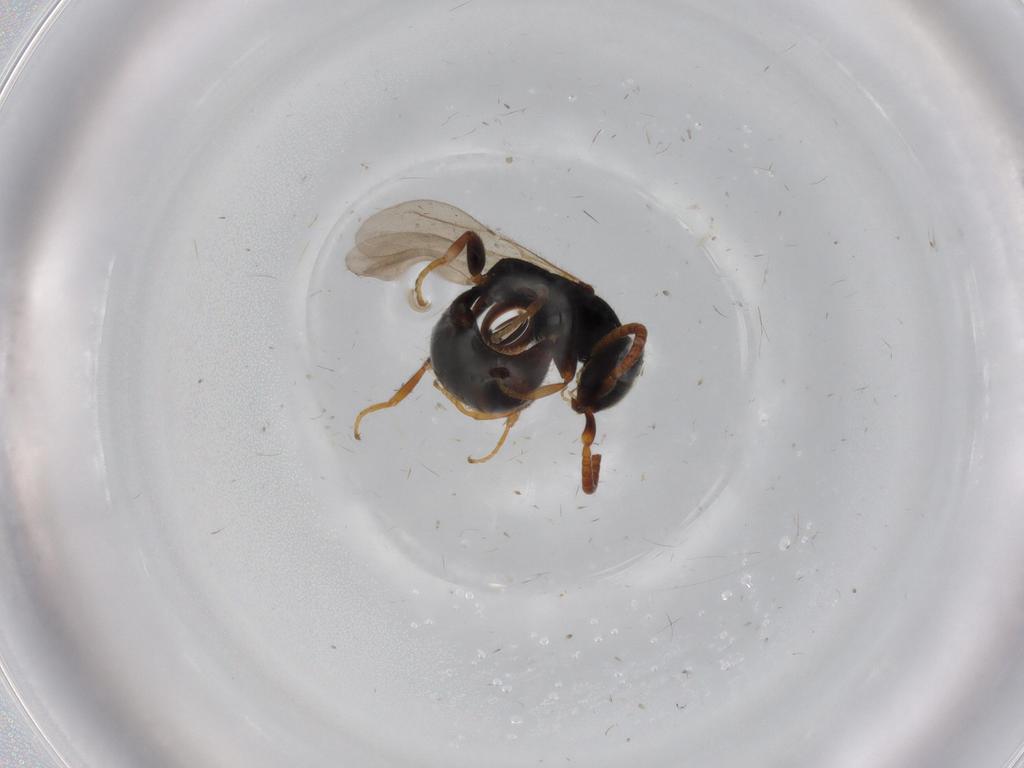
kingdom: Animalia
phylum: Arthropoda
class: Insecta
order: Hymenoptera
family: Bethylidae
